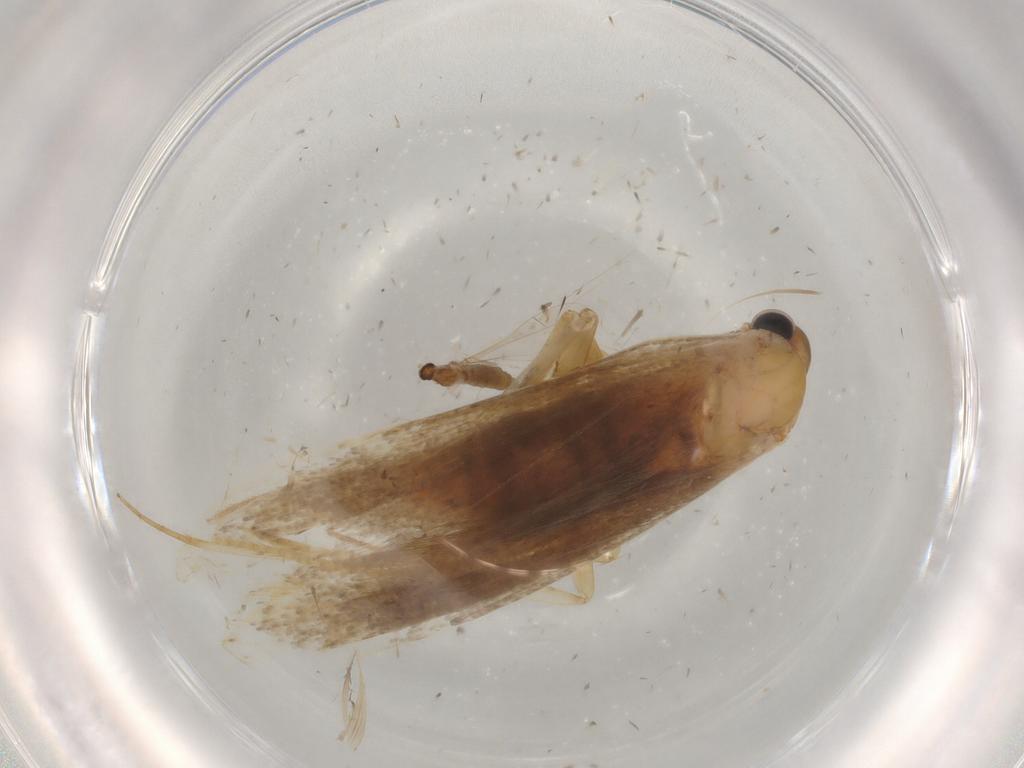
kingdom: Animalia
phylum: Arthropoda
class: Insecta
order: Lepidoptera
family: Lecithoceridae
